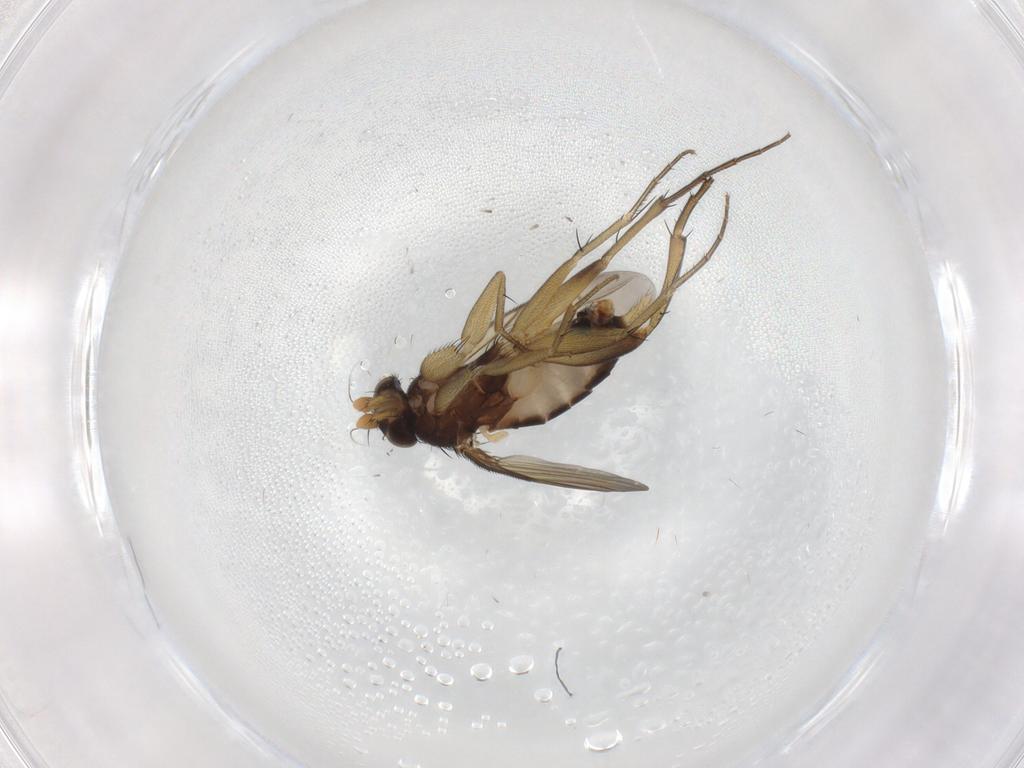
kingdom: Animalia
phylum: Arthropoda
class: Insecta
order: Diptera
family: Phoridae
